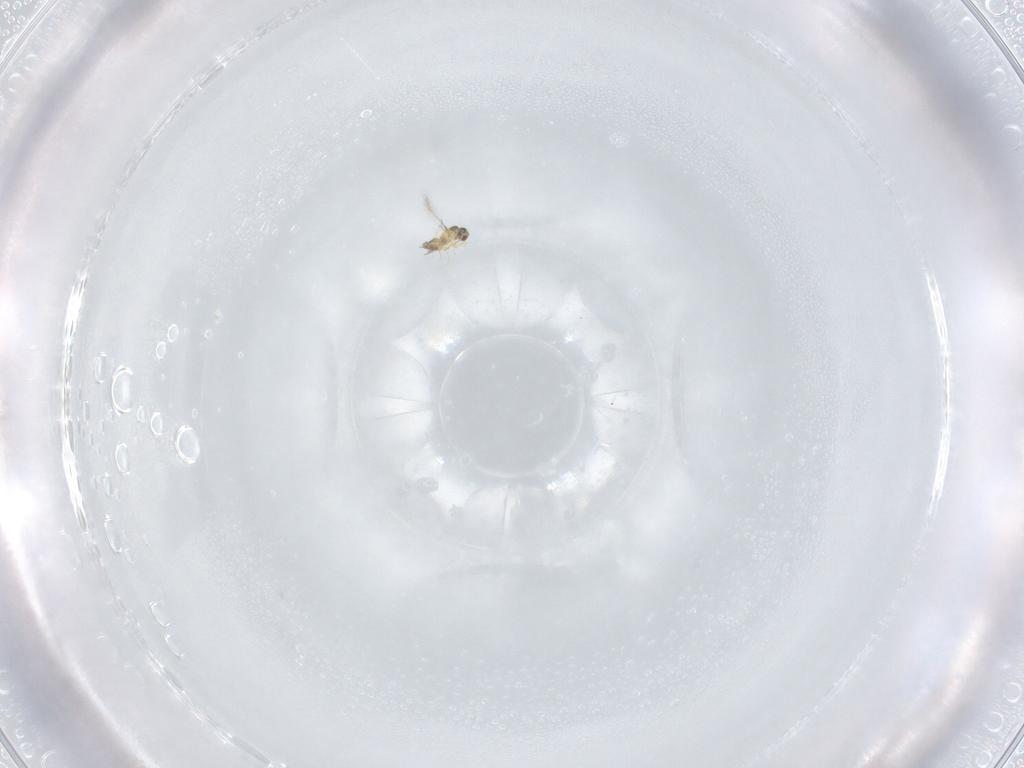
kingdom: Animalia
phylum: Arthropoda
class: Insecta
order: Hymenoptera
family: Mymaridae
